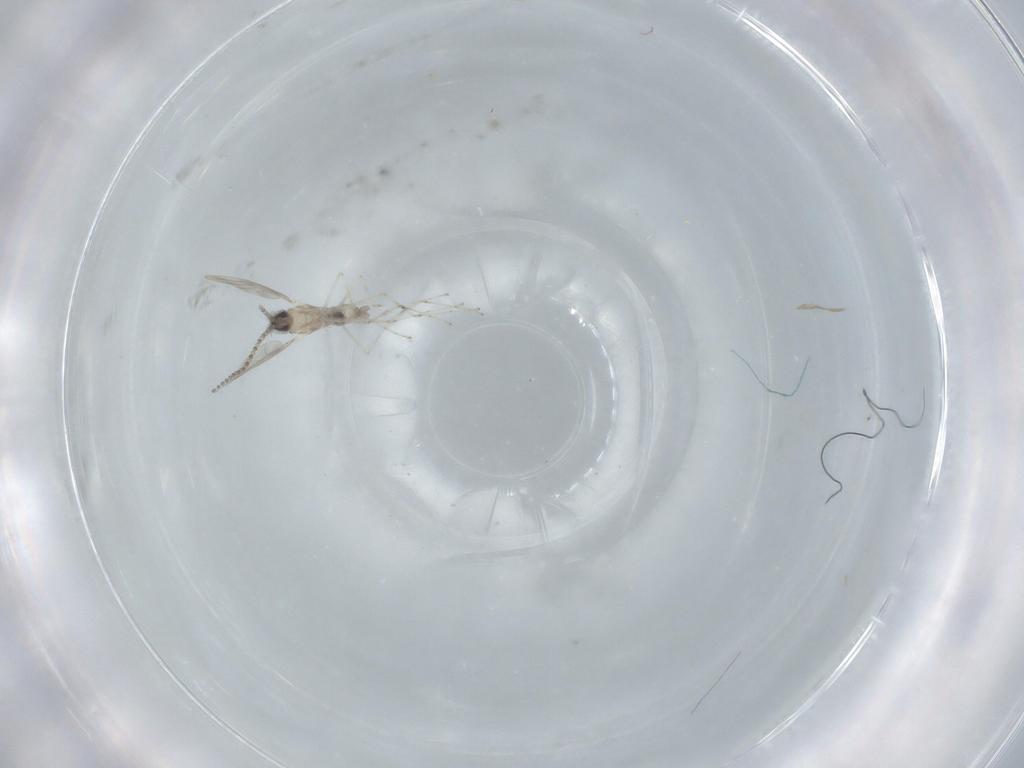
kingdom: Animalia
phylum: Arthropoda
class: Insecta
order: Diptera
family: Cecidomyiidae
